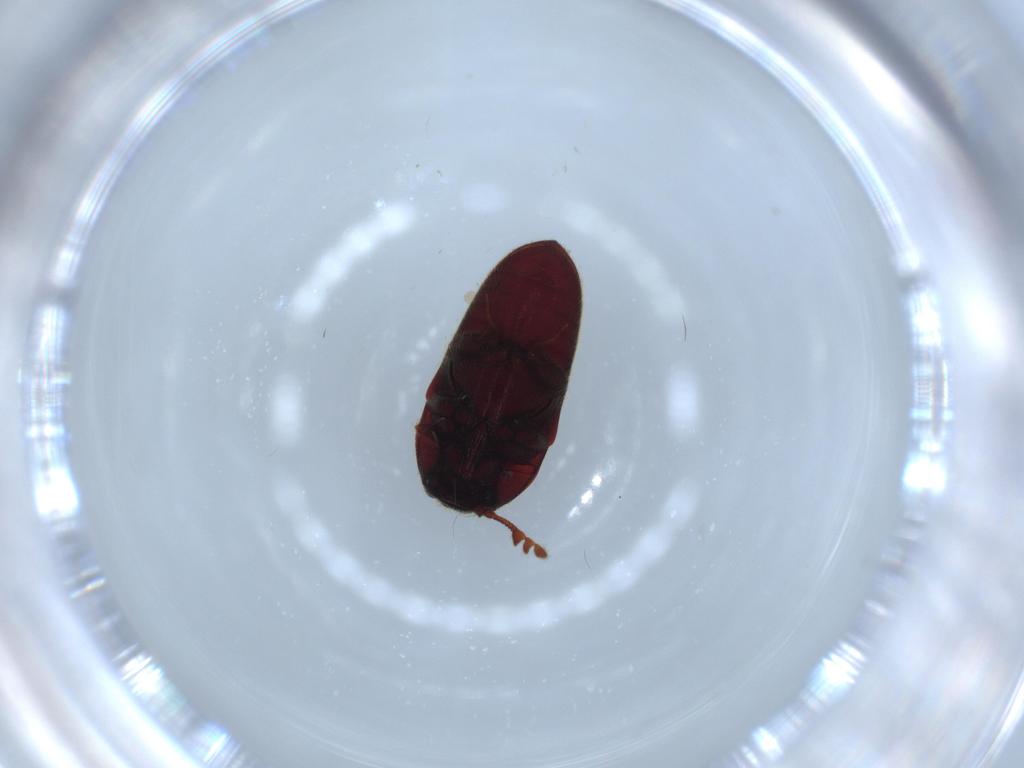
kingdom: Animalia
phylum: Arthropoda
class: Insecta
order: Coleoptera
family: Throscidae
